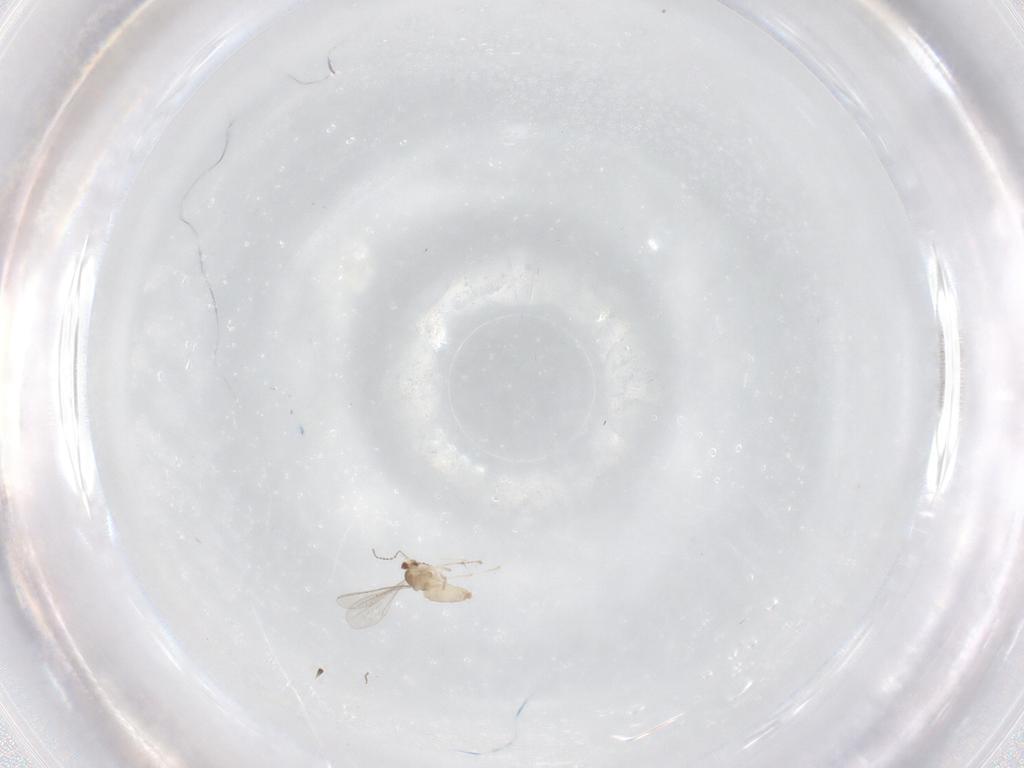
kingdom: Animalia
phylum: Arthropoda
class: Insecta
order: Diptera
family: Cecidomyiidae
